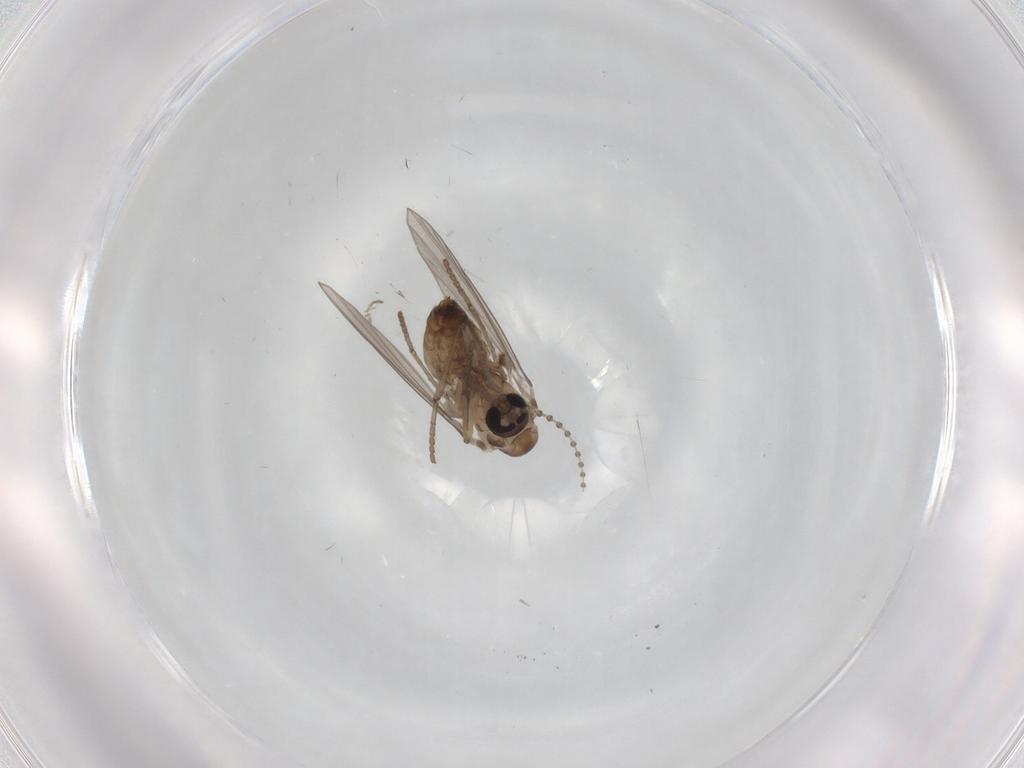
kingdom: Animalia
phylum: Arthropoda
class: Insecta
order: Diptera
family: Psychodidae
